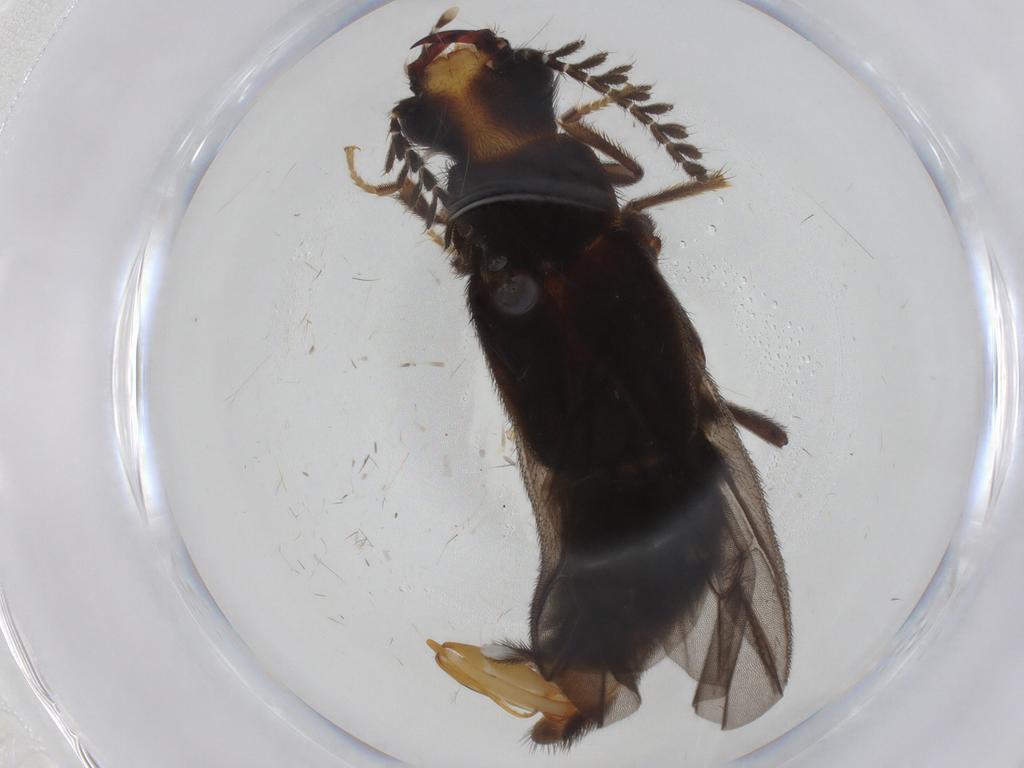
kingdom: Animalia
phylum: Arthropoda
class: Insecta
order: Coleoptera
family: Phengodidae
